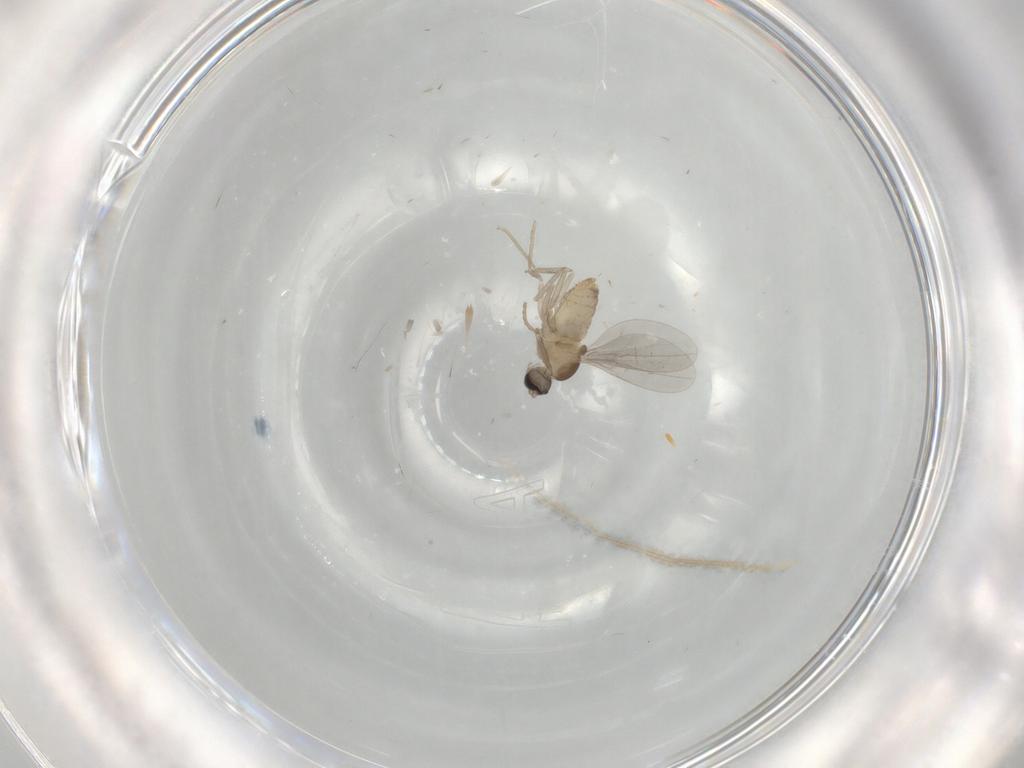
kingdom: Animalia
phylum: Arthropoda
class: Insecta
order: Diptera
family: Cecidomyiidae
